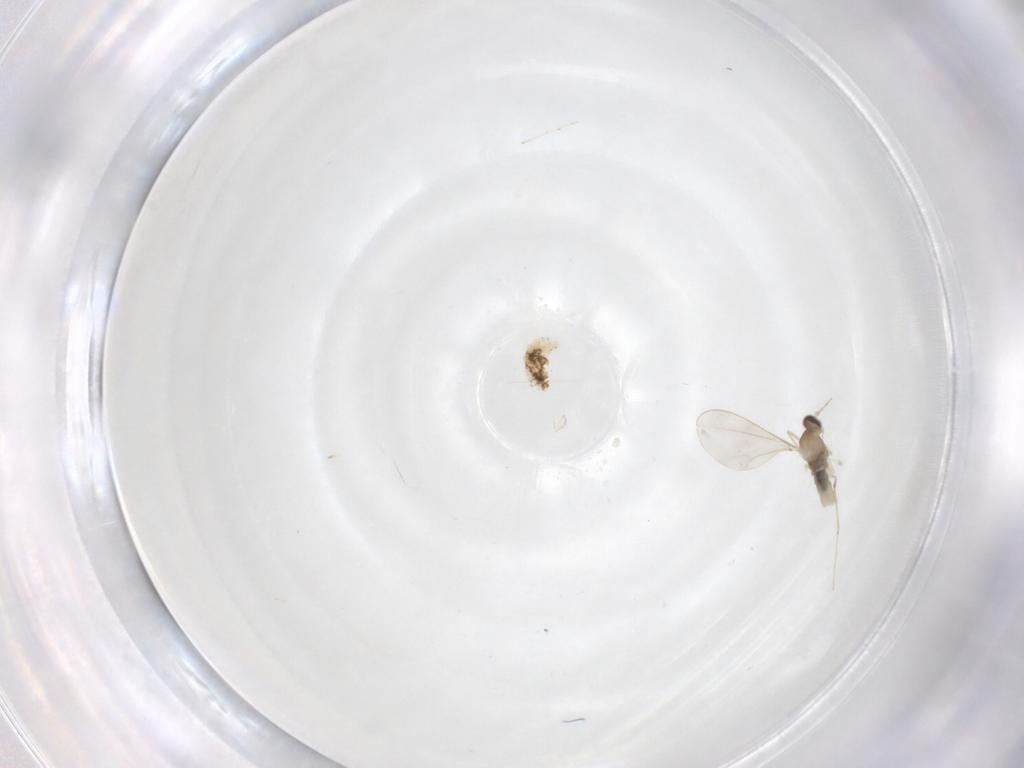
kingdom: Animalia
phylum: Arthropoda
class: Insecta
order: Diptera
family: Cecidomyiidae
